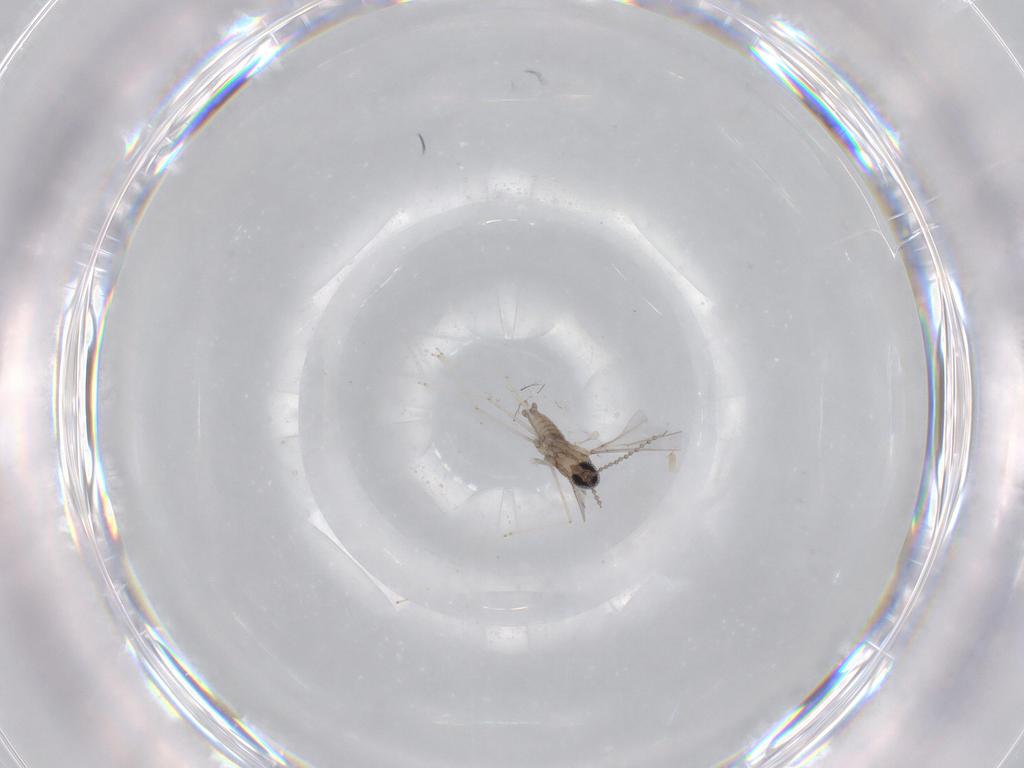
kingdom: Animalia
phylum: Arthropoda
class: Insecta
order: Diptera
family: Cecidomyiidae
